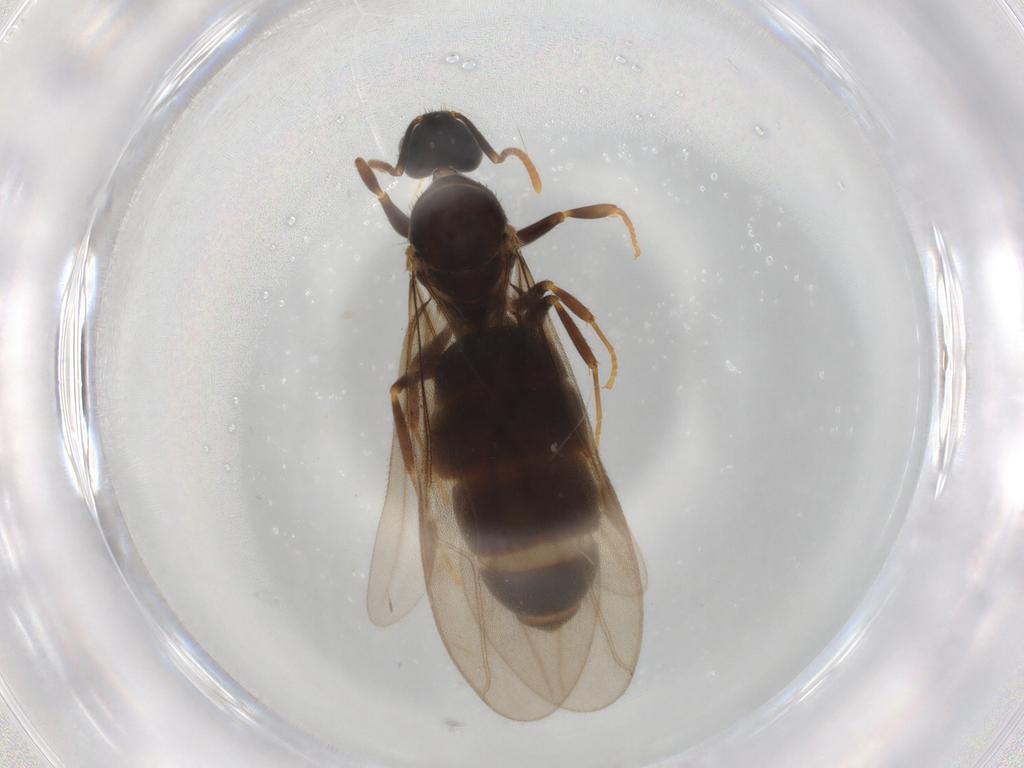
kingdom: Animalia
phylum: Arthropoda
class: Insecta
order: Hymenoptera
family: Formicidae
